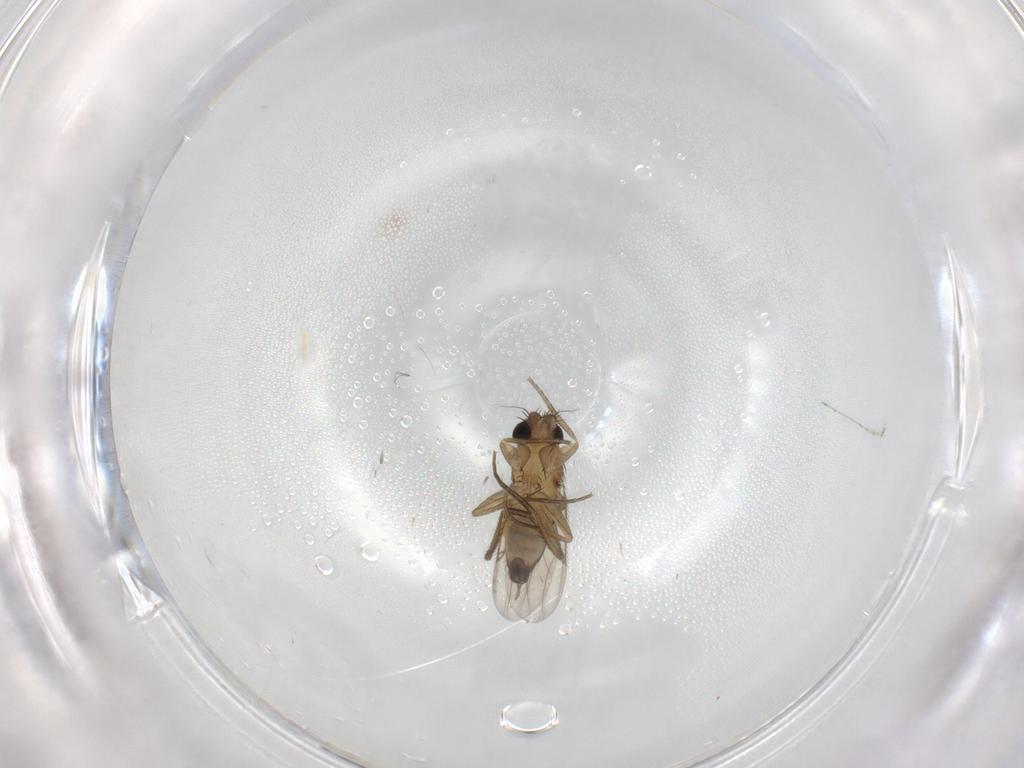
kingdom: Animalia
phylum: Arthropoda
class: Insecta
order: Diptera
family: Phoridae
